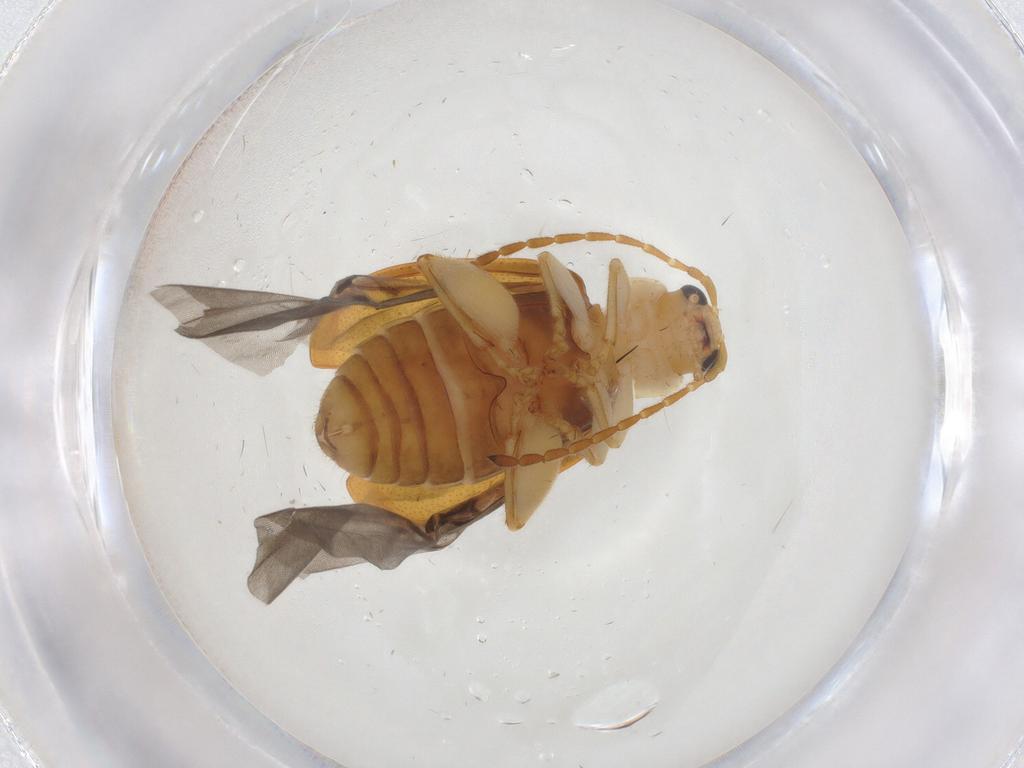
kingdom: Animalia
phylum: Arthropoda
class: Insecta
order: Coleoptera
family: Chrysomelidae
